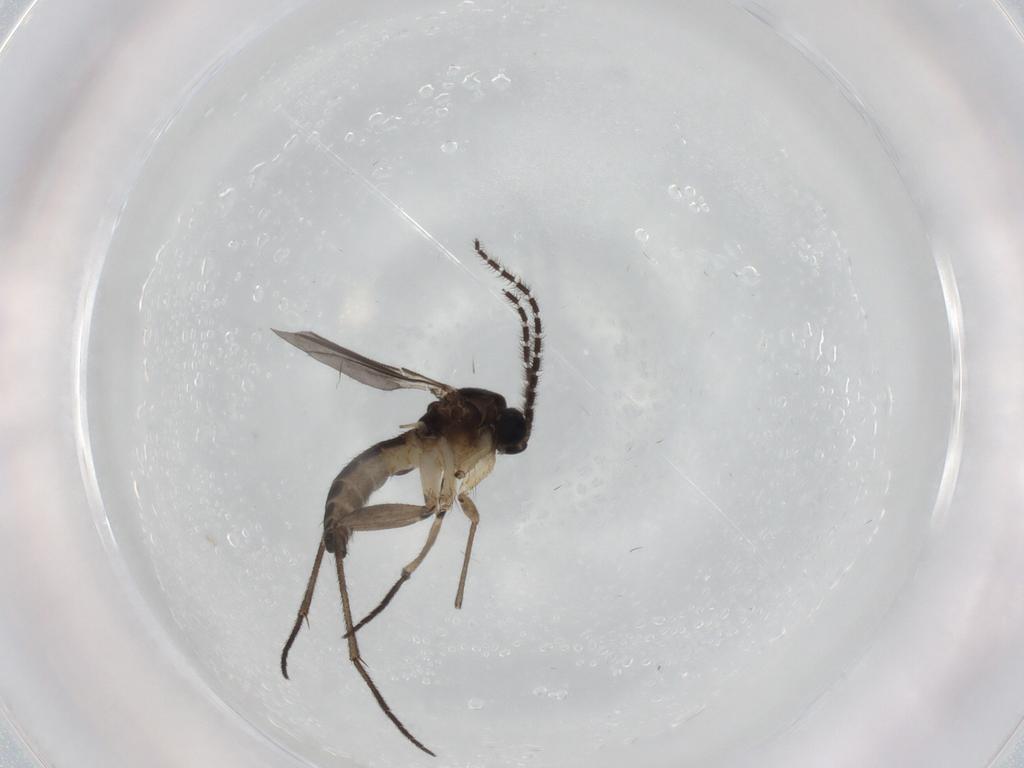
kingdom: Animalia
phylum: Arthropoda
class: Insecta
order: Diptera
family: Sciaridae
